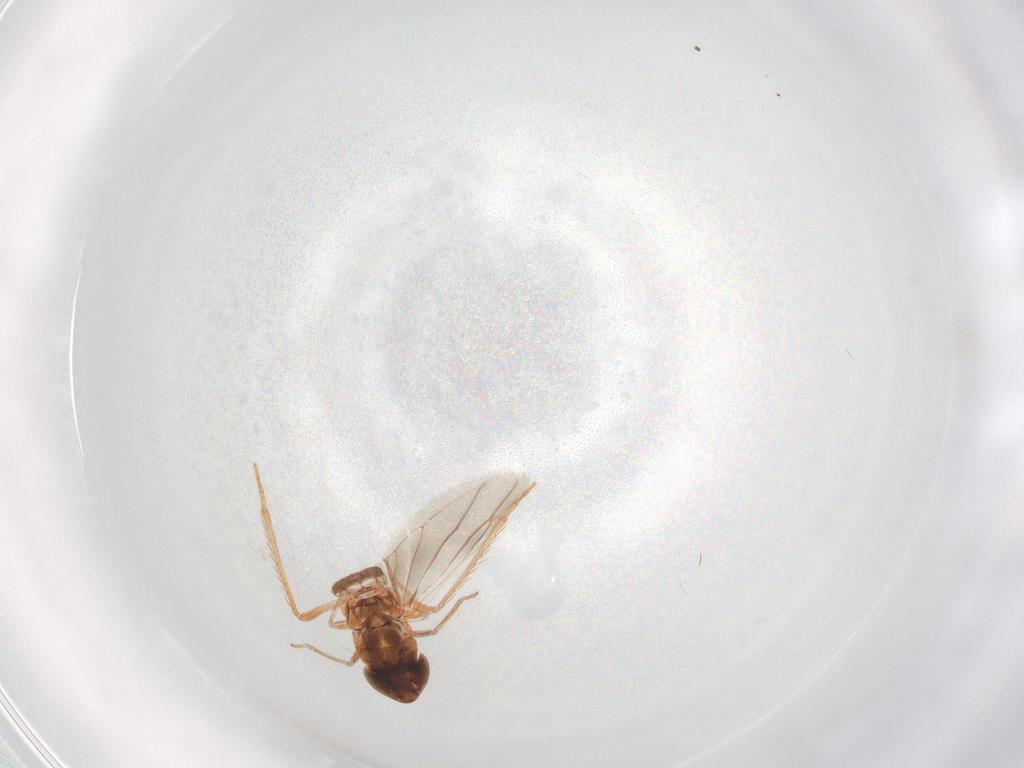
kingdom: Animalia
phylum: Arthropoda
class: Insecta
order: Hemiptera
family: Cicadellidae
